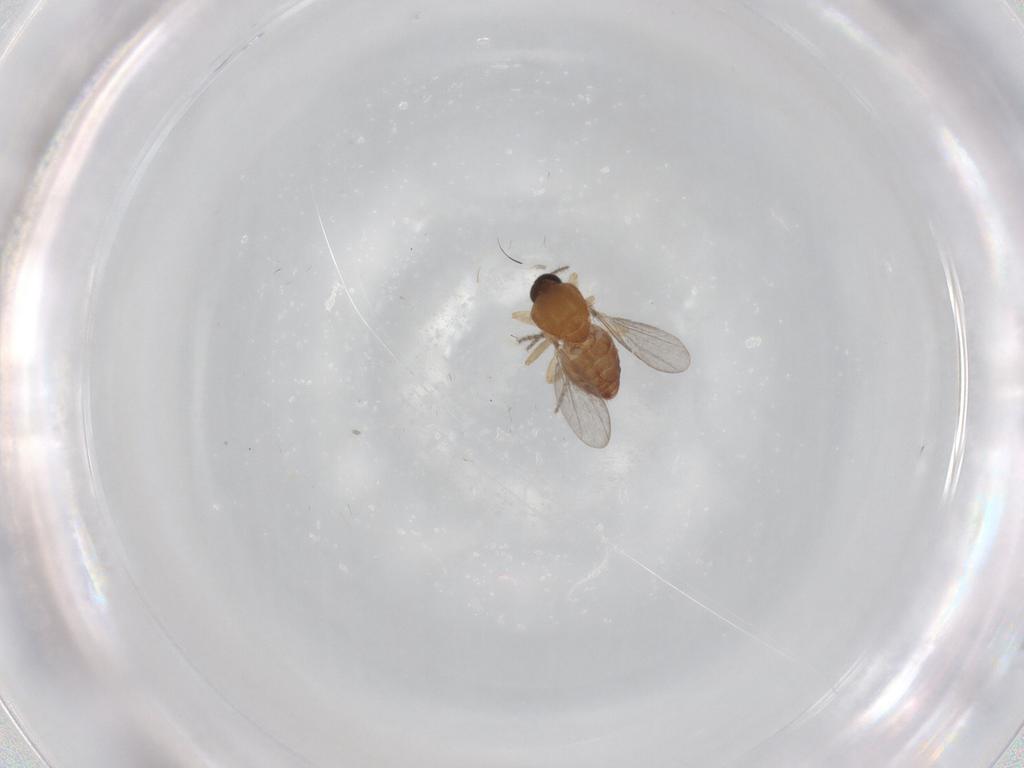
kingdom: Animalia
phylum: Arthropoda
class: Insecta
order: Diptera
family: Ceratopogonidae
